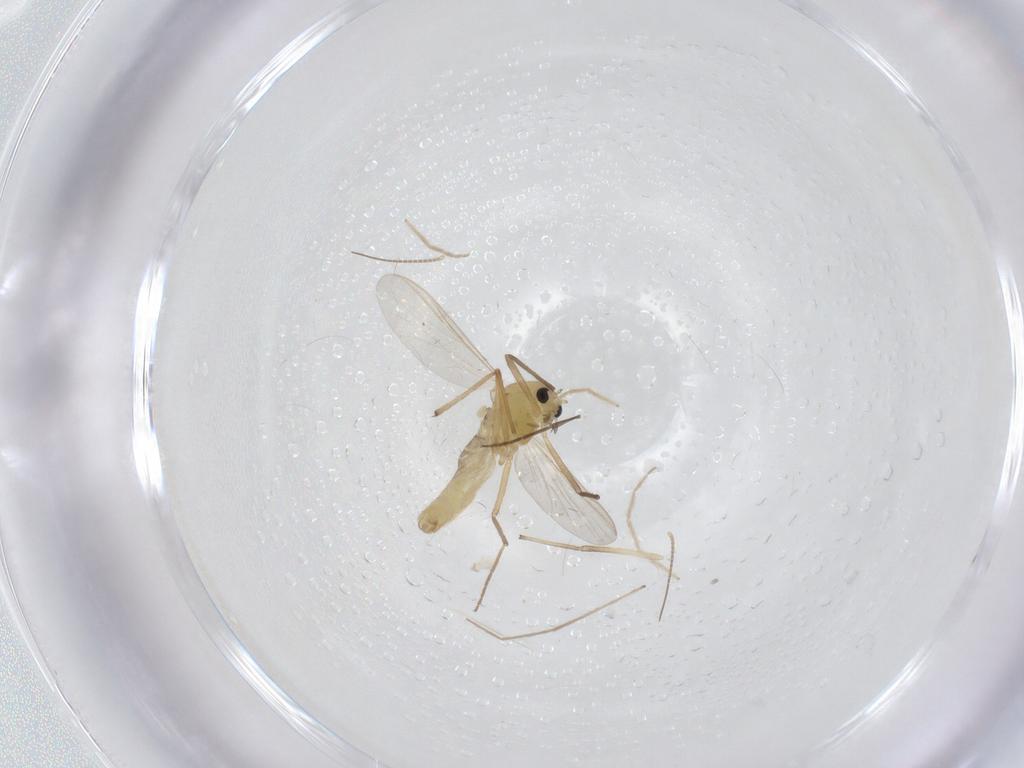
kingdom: Animalia
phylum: Arthropoda
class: Insecta
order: Diptera
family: Chironomidae
